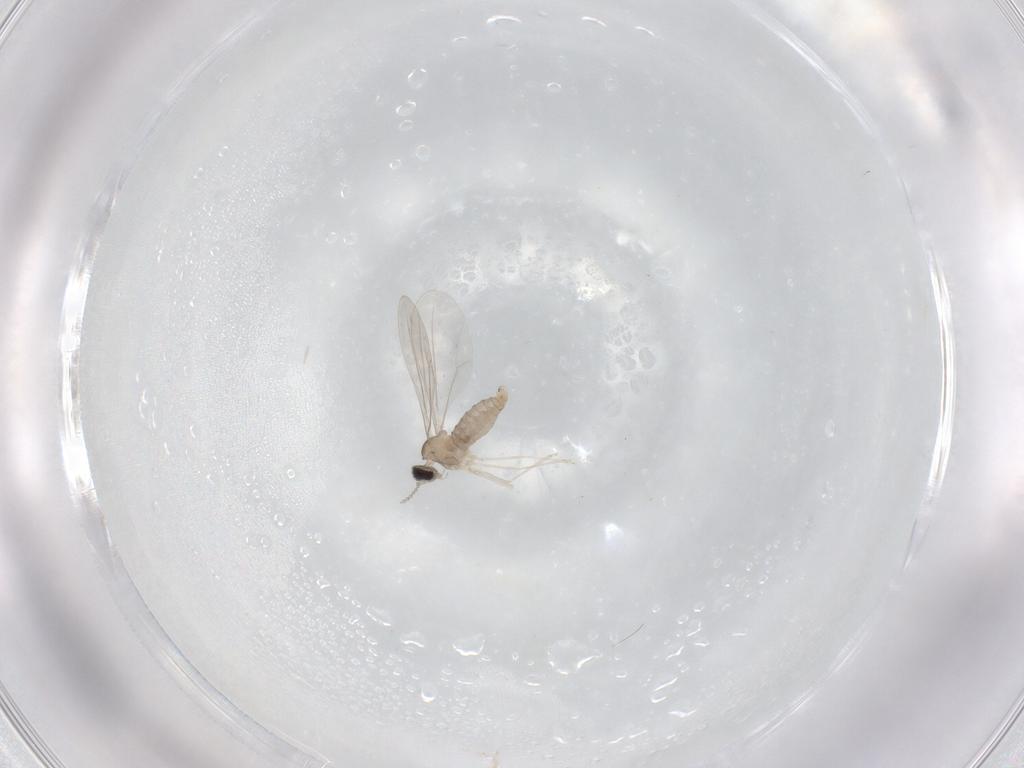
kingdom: Animalia
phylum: Arthropoda
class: Insecta
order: Diptera
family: Cecidomyiidae
